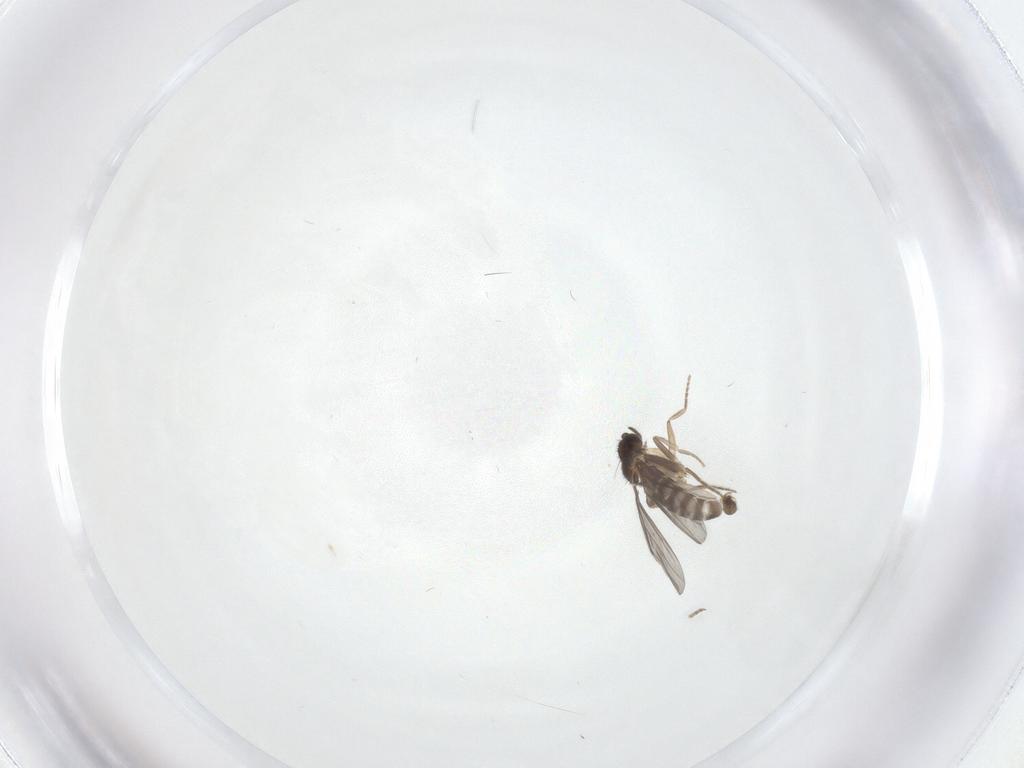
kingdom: Animalia
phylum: Arthropoda
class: Insecta
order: Diptera
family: Cecidomyiidae
